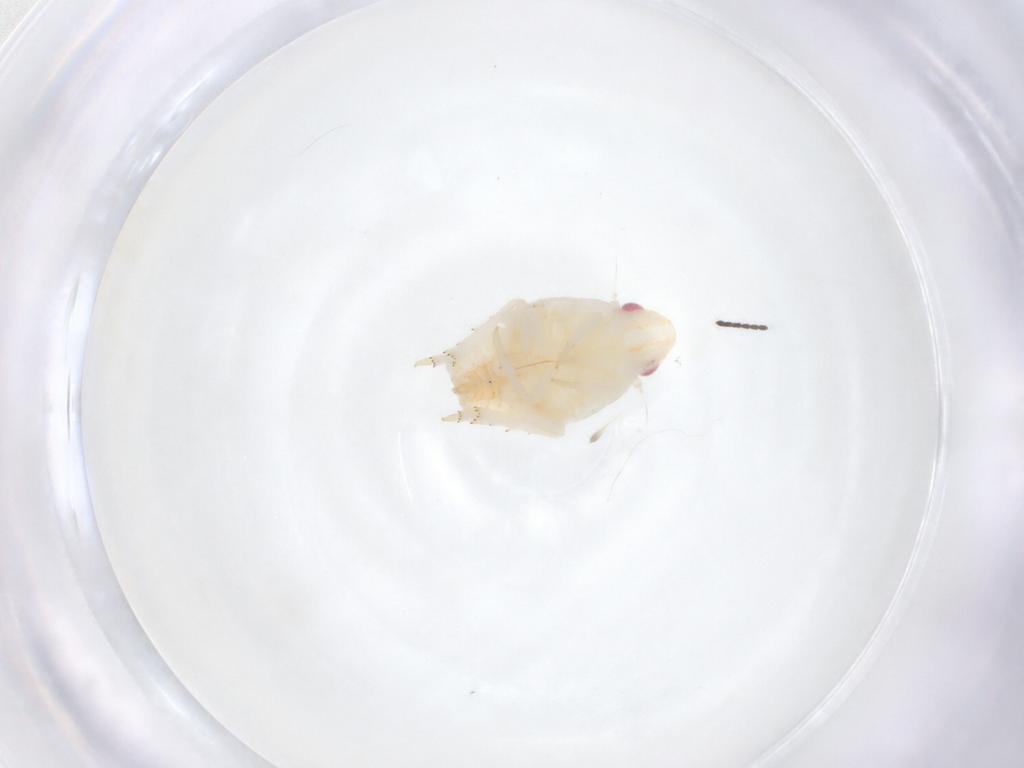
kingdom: Animalia
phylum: Arthropoda
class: Insecta
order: Hemiptera
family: Flatidae
